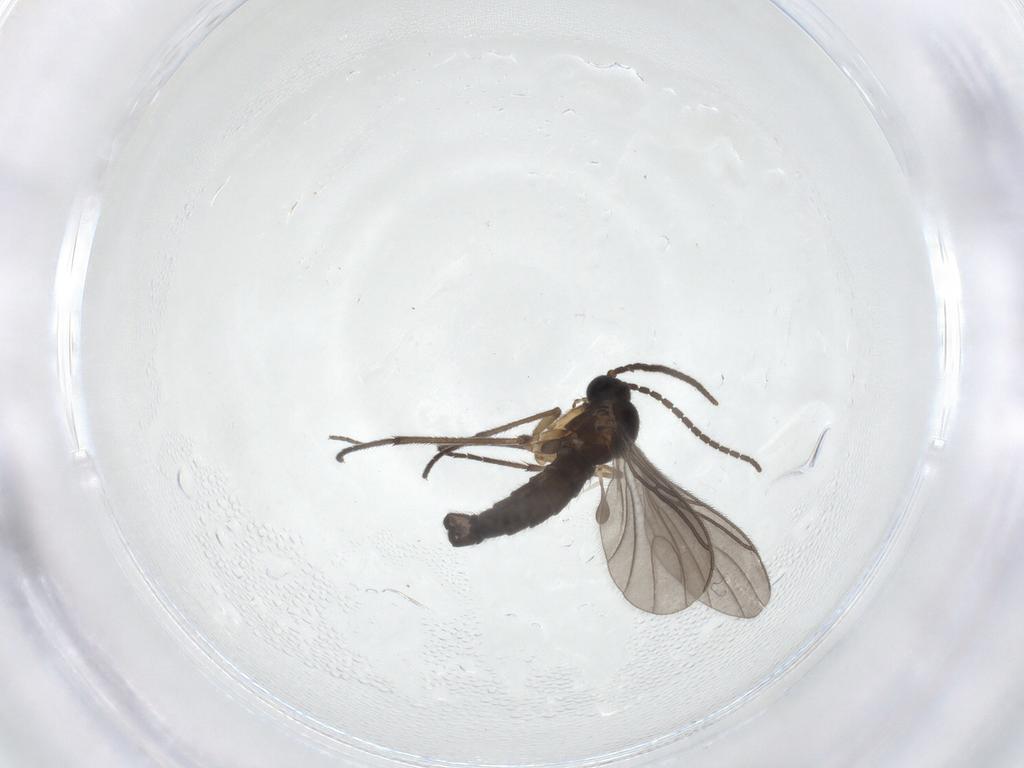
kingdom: Animalia
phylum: Arthropoda
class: Insecta
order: Diptera
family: Sciaridae
